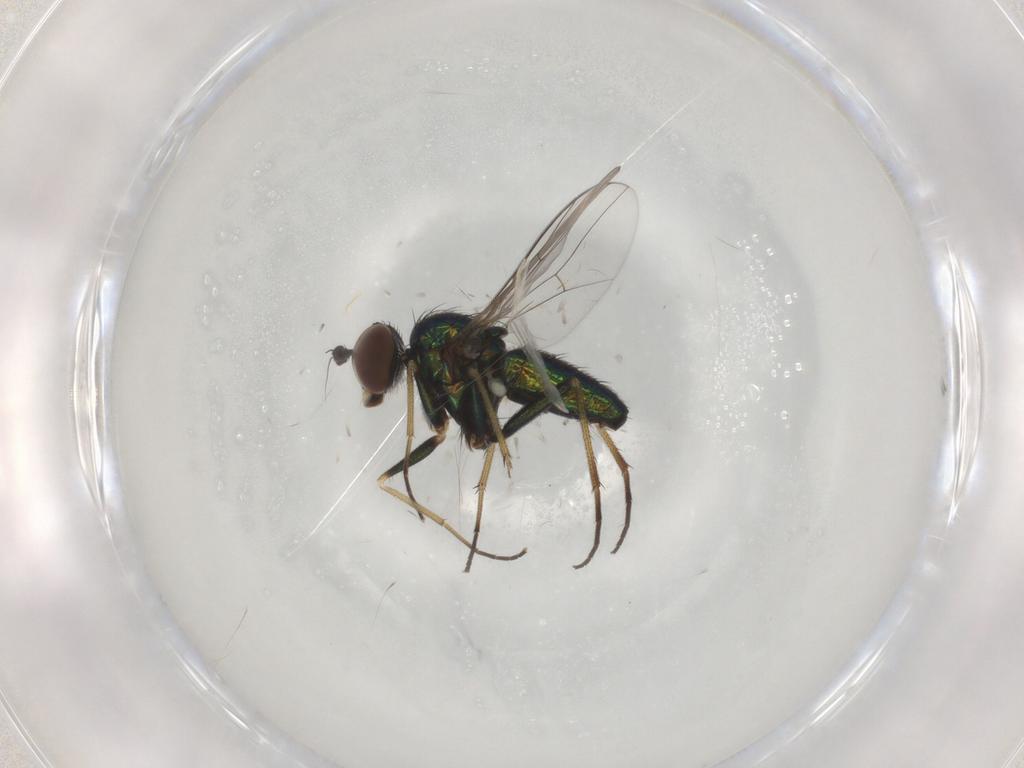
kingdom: Animalia
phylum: Arthropoda
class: Insecta
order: Diptera
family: Dolichopodidae
